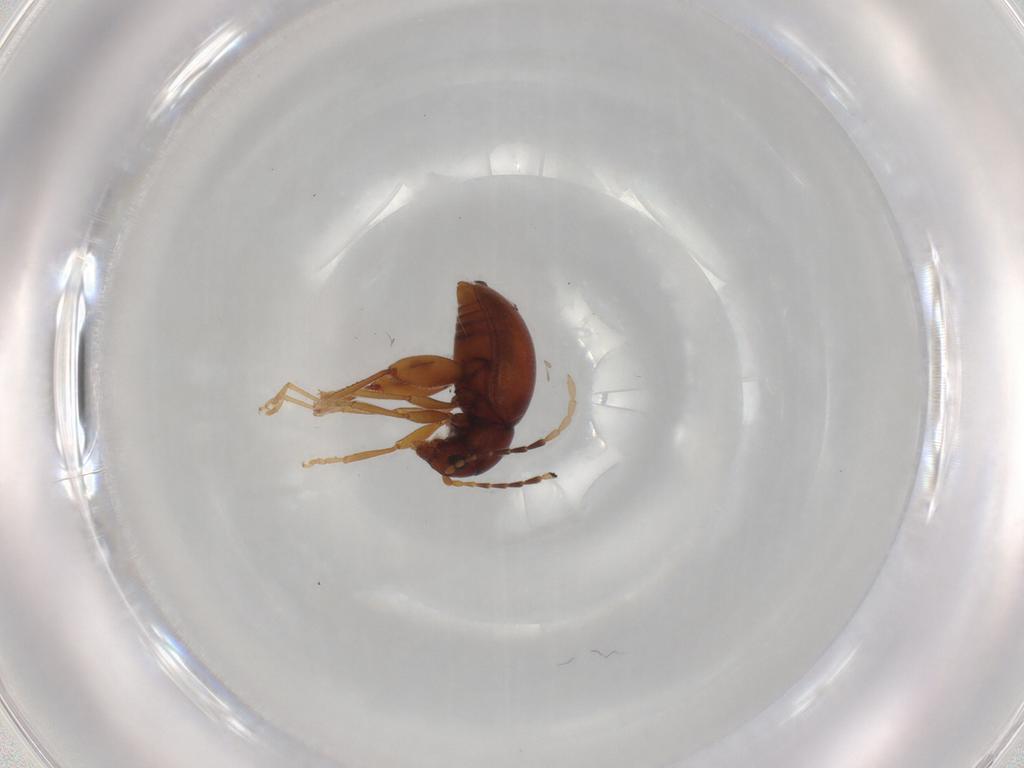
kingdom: Animalia
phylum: Arthropoda
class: Insecta
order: Coleoptera
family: Chrysomelidae
